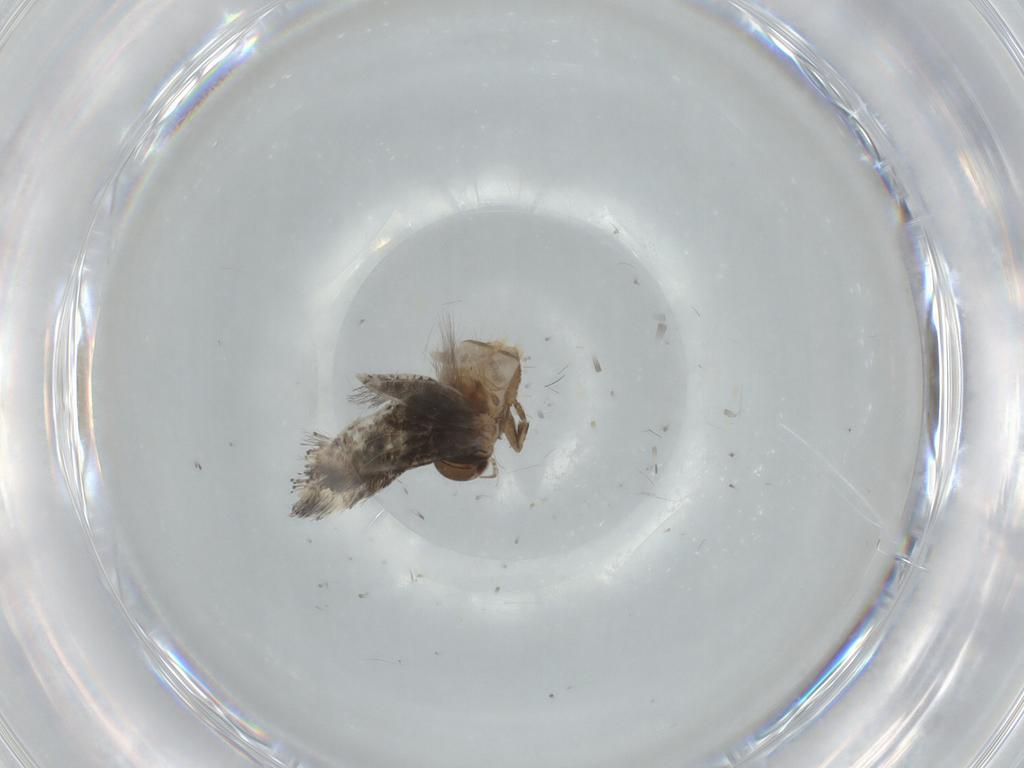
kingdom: Animalia
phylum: Arthropoda
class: Insecta
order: Lepidoptera
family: Elachistidae
